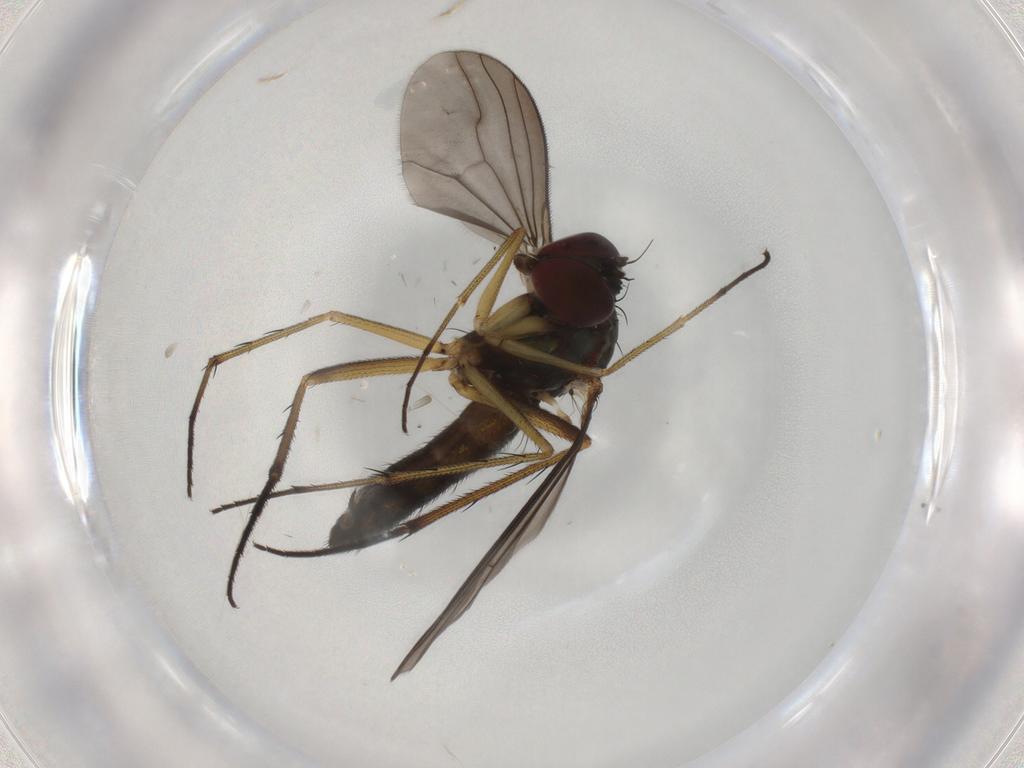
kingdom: Animalia
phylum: Arthropoda
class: Insecta
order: Diptera
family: Dolichopodidae
